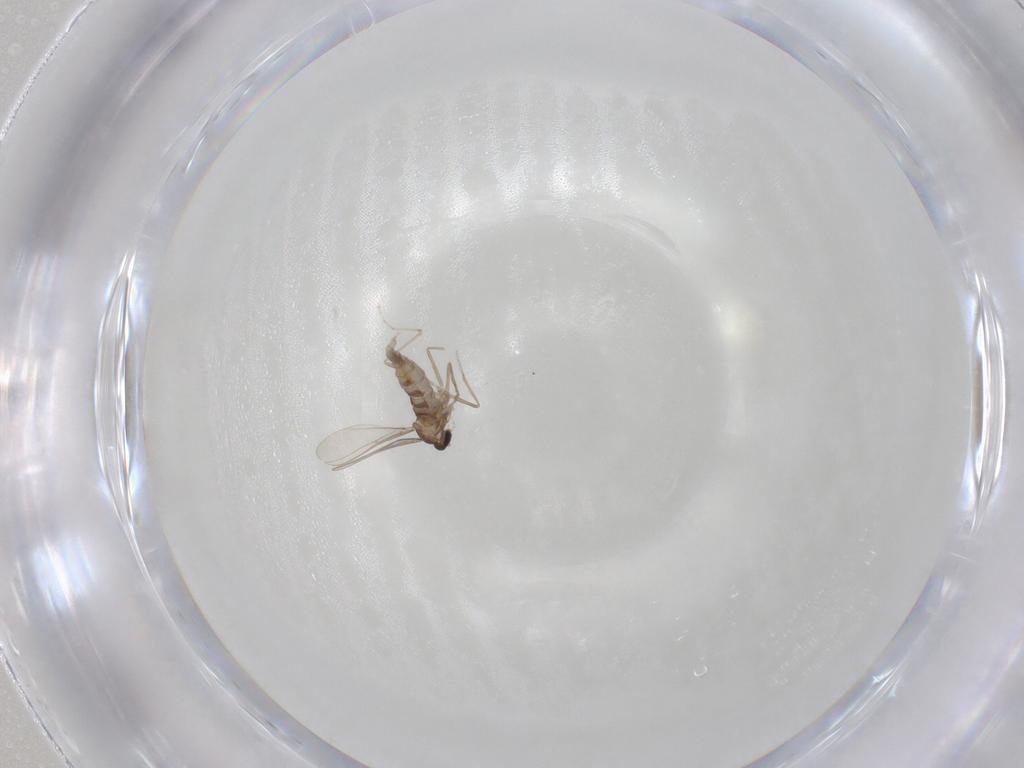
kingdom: Animalia
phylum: Arthropoda
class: Insecta
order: Diptera
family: Cecidomyiidae
